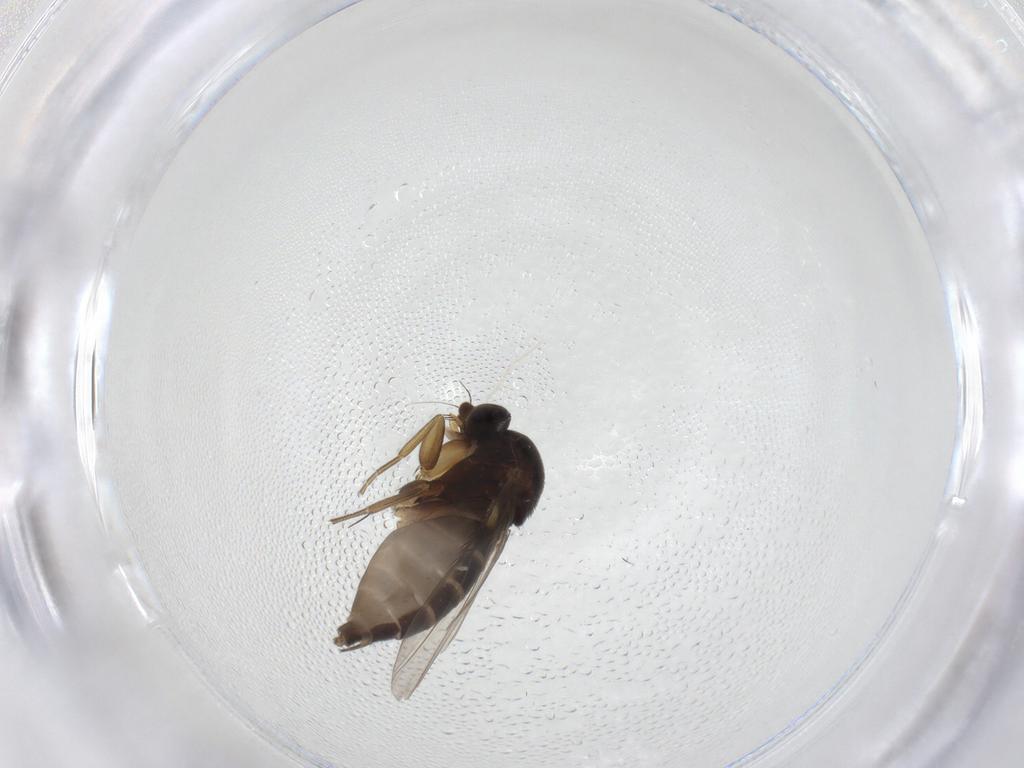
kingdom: Animalia
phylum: Arthropoda
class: Insecta
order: Diptera
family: Phoridae
